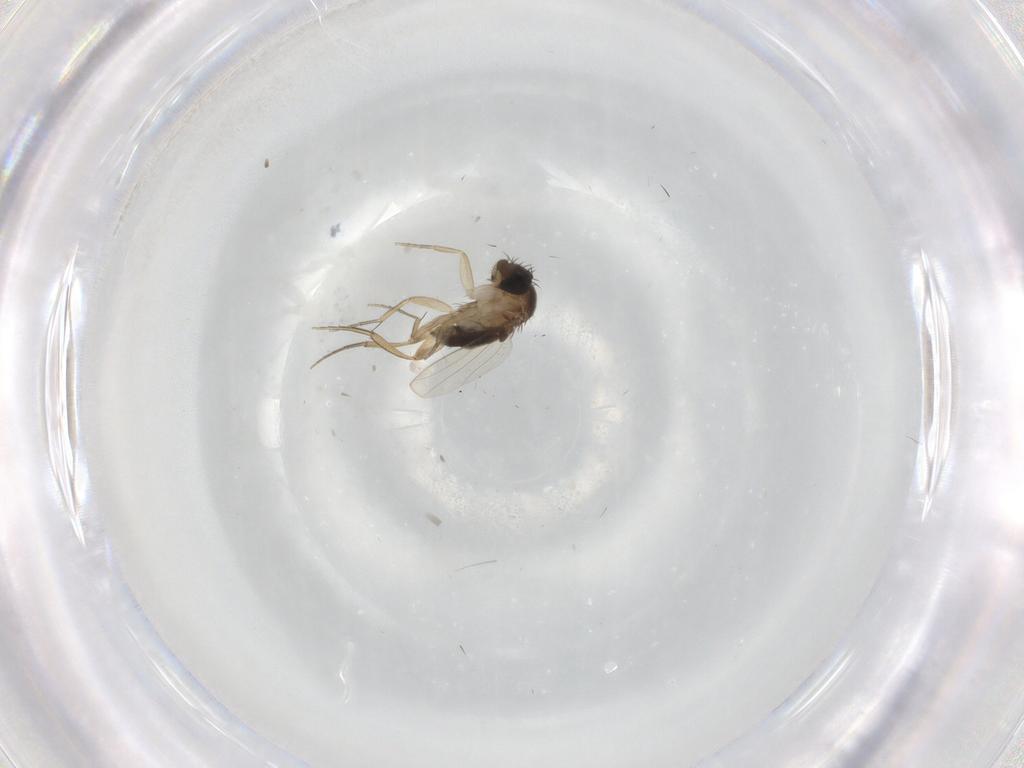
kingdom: Animalia
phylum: Arthropoda
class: Insecta
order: Diptera
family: Phoridae
